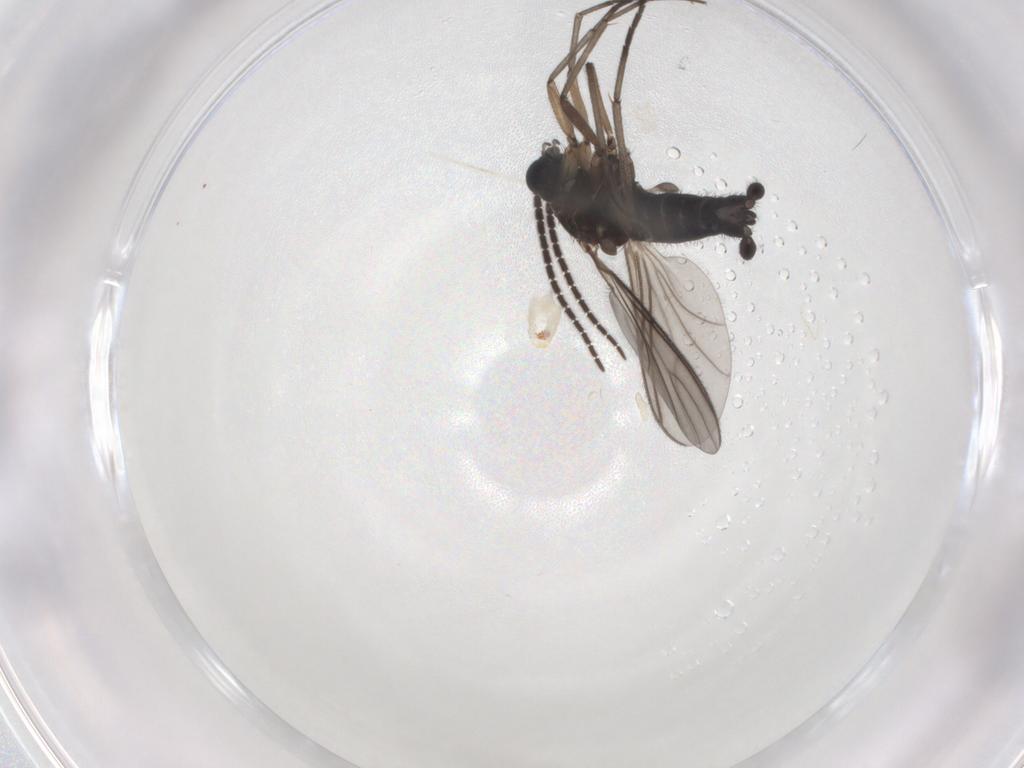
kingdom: Animalia
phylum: Arthropoda
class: Insecta
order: Diptera
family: Sciaridae
